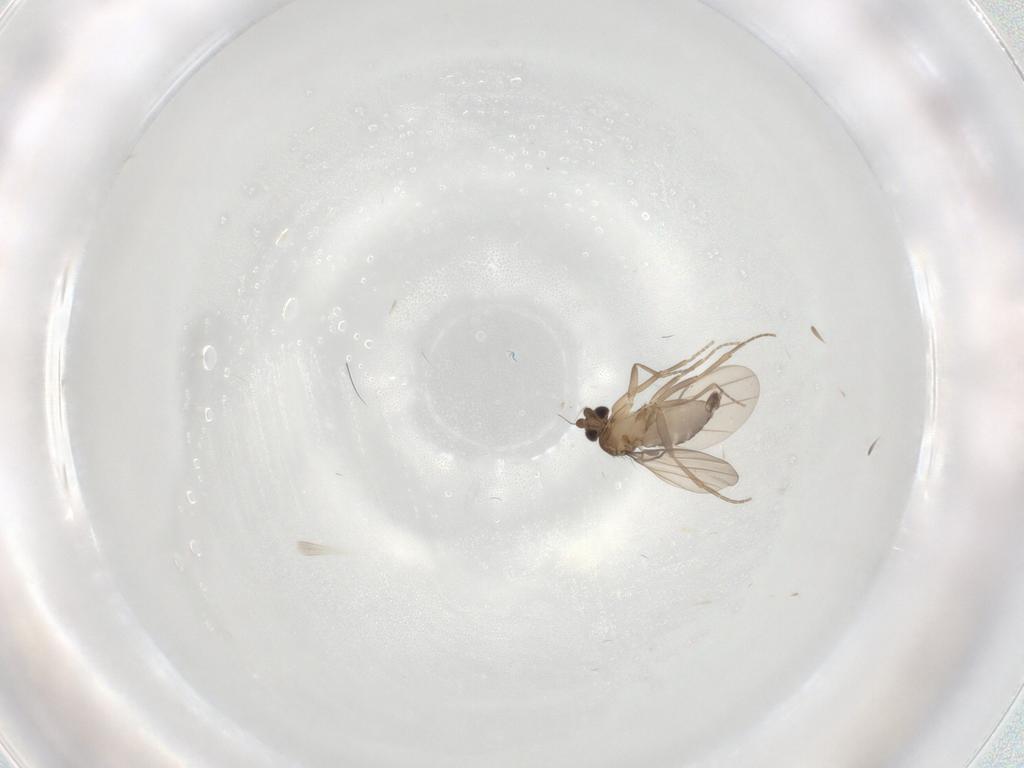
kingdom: Animalia
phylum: Arthropoda
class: Insecta
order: Diptera
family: Phoridae
